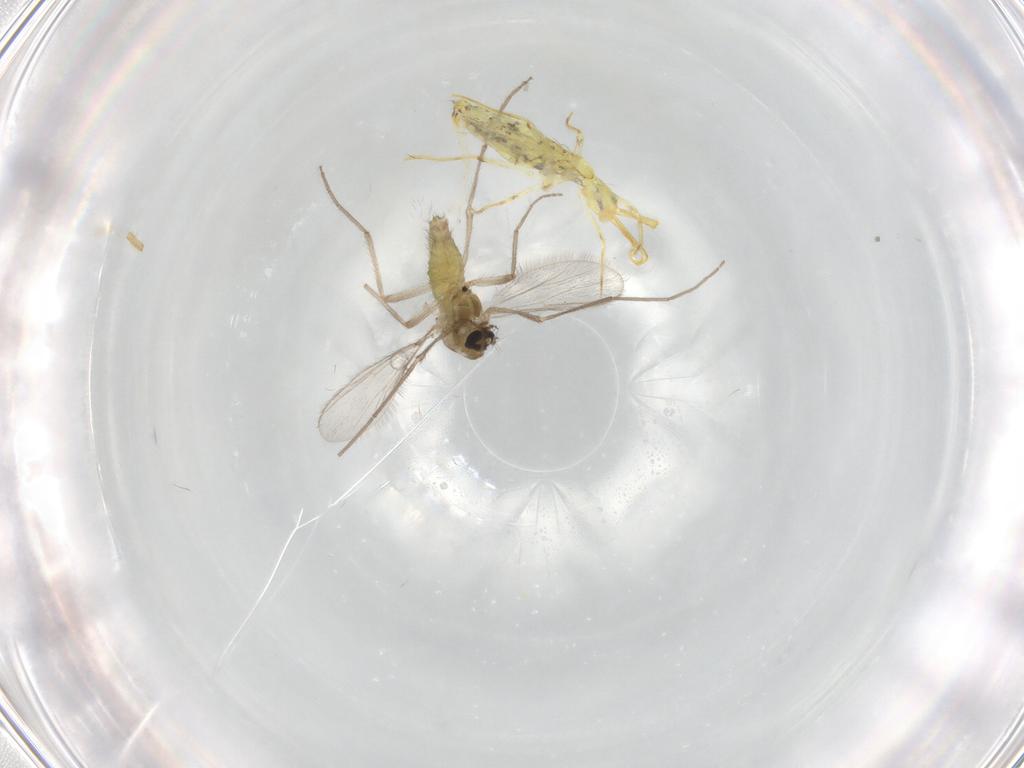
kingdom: Animalia
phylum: Arthropoda
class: Insecta
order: Diptera
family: Chironomidae
